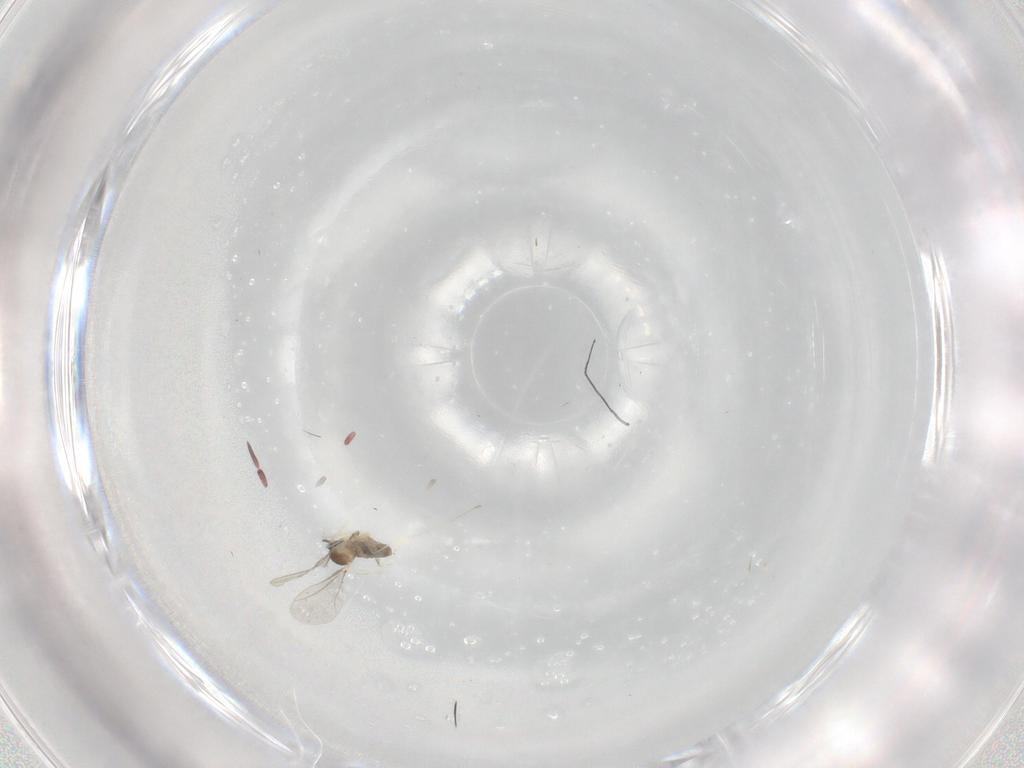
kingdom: Animalia
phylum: Arthropoda
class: Insecta
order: Diptera
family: Cecidomyiidae
